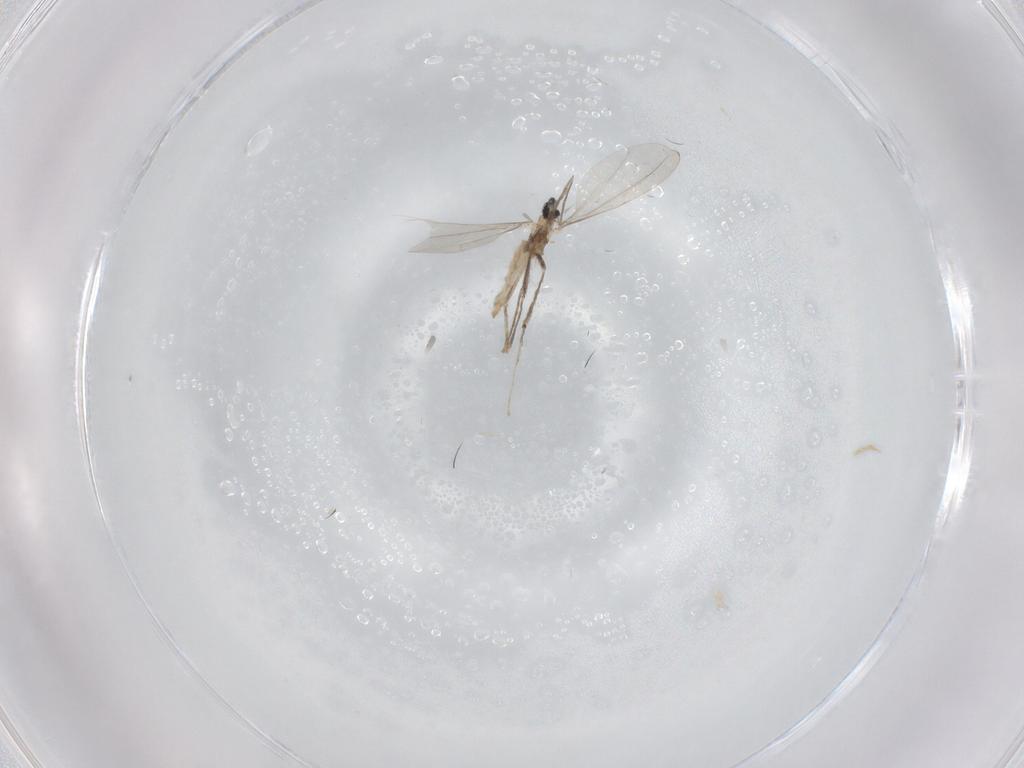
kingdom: Animalia
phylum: Arthropoda
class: Insecta
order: Diptera
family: Ceratopogonidae
